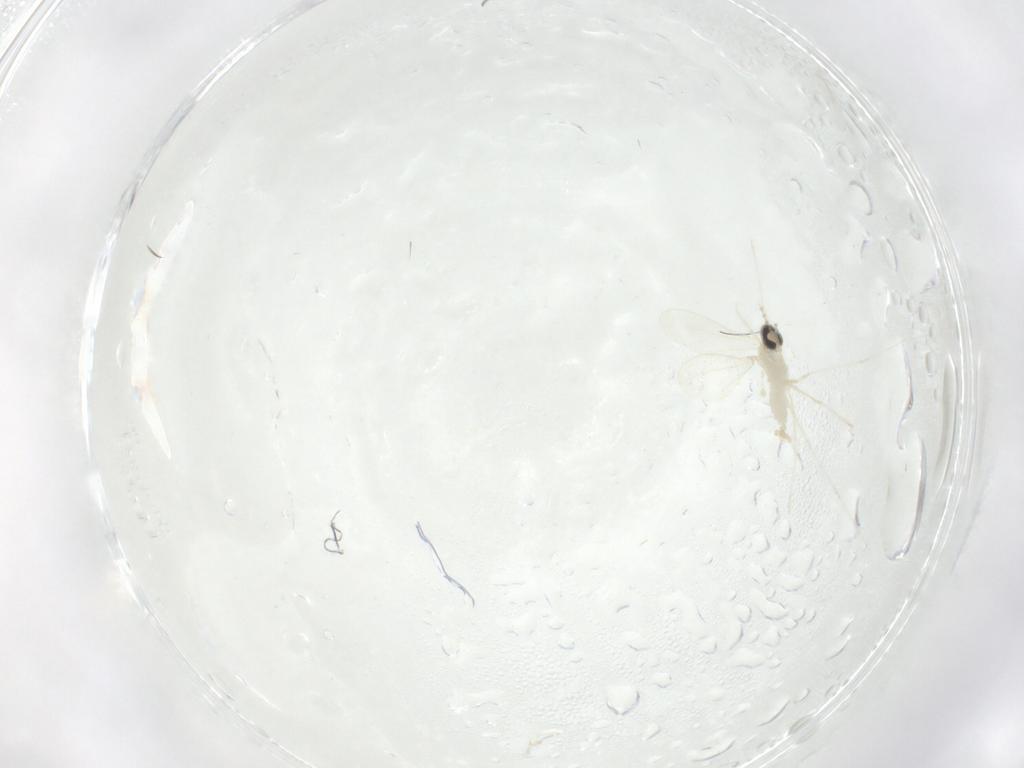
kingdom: Animalia
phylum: Arthropoda
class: Insecta
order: Diptera
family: Cecidomyiidae
